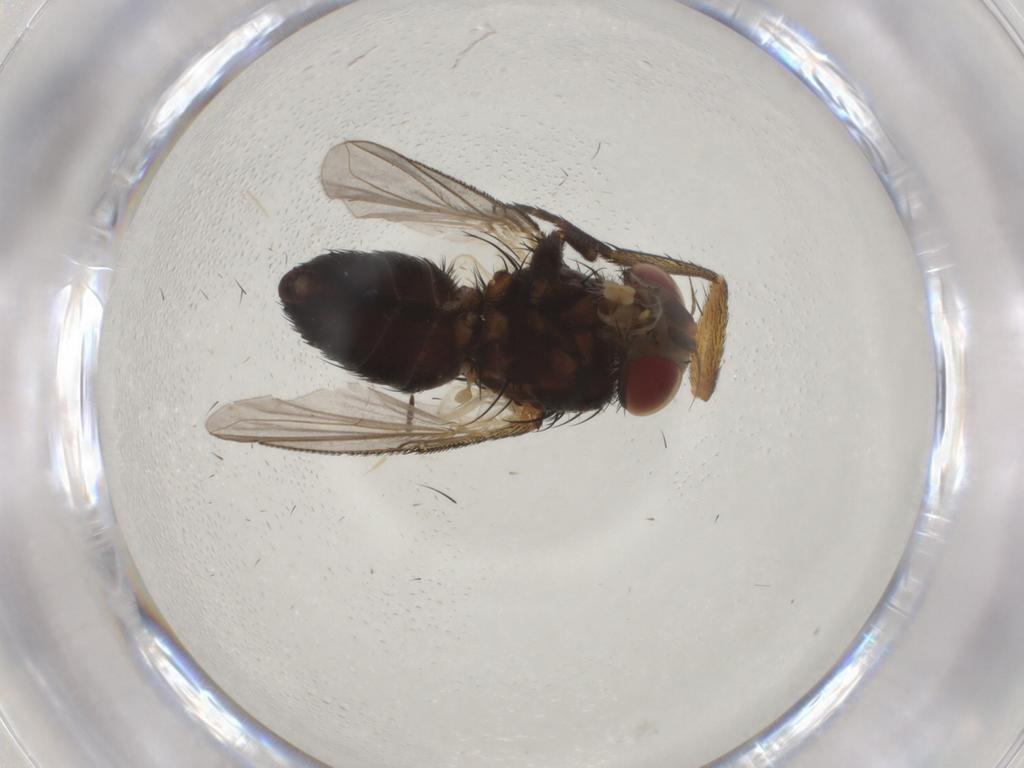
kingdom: Animalia
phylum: Arthropoda
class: Insecta
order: Diptera
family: Tachinidae
